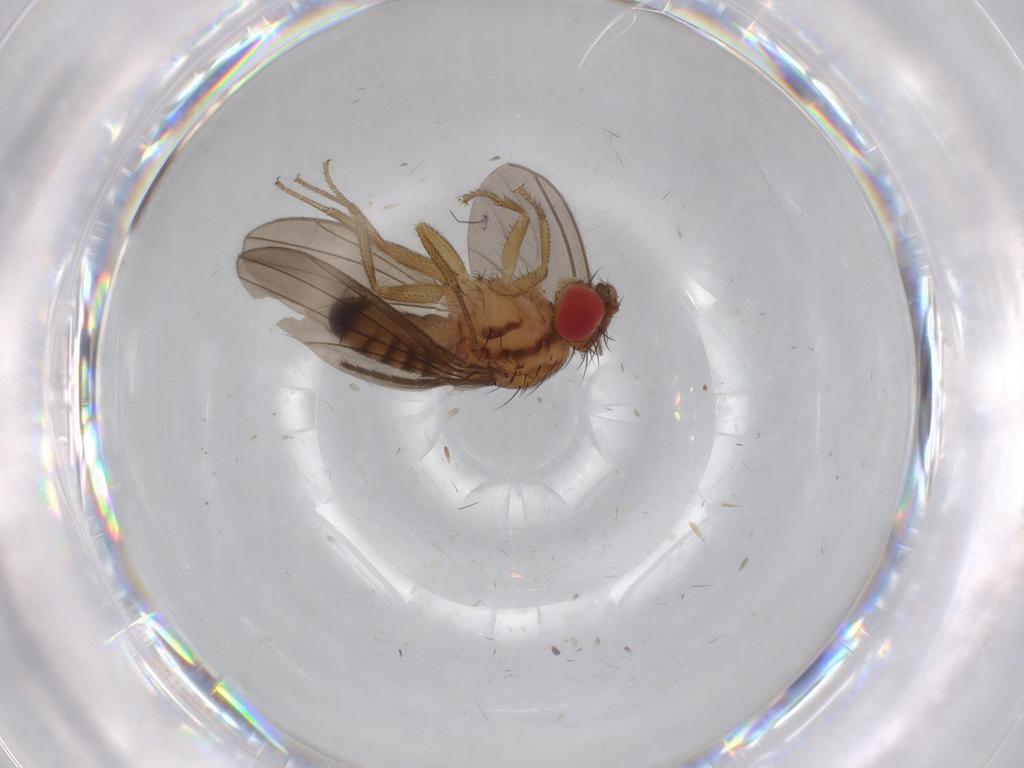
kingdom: Animalia
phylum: Arthropoda
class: Insecta
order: Diptera
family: Drosophilidae
